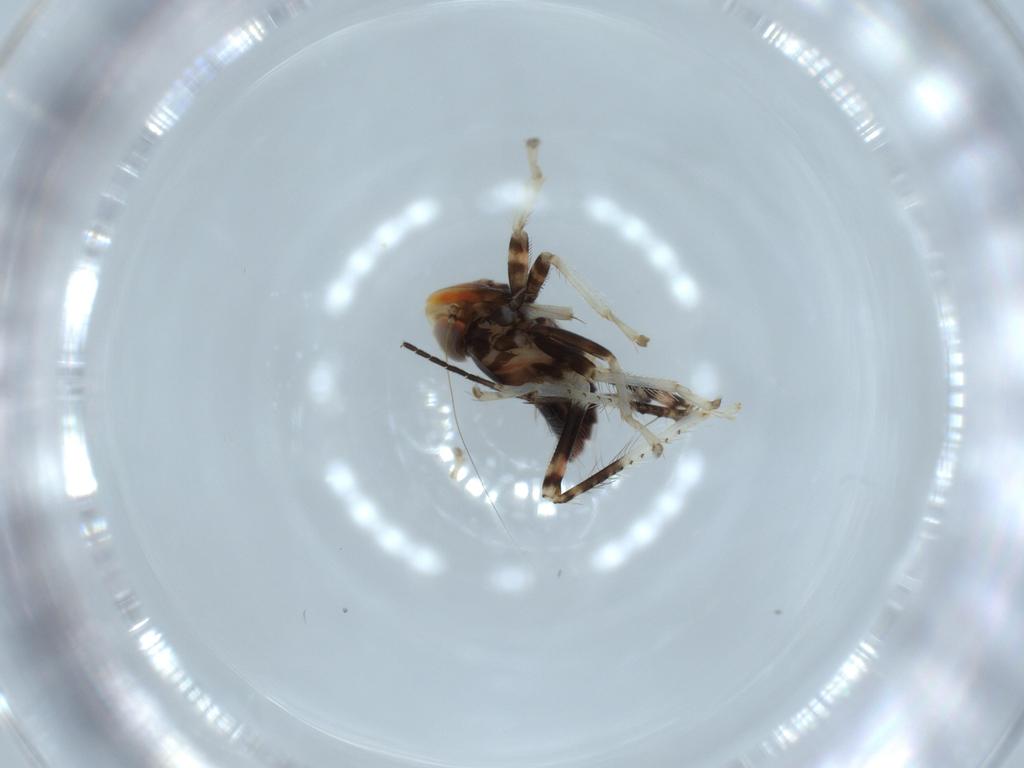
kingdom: Animalia
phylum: Arthropoda
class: Insecta
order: Hemiptera
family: Cicadellidae
